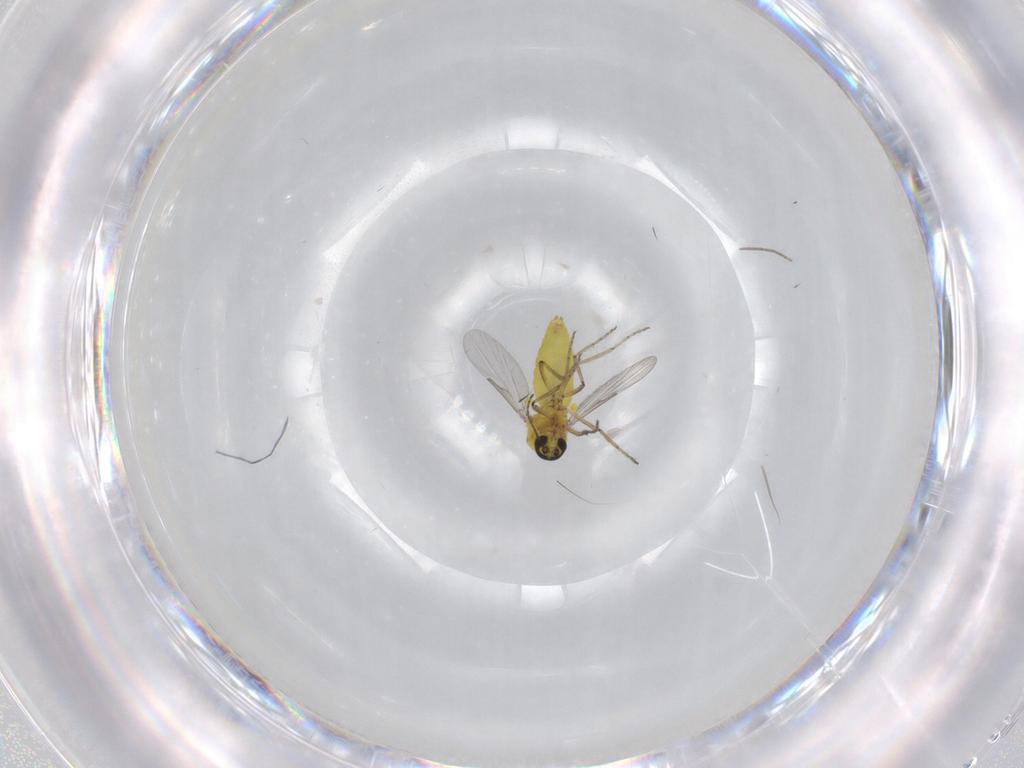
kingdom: Animalia
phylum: Arthropoda
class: Insecta
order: Diptera
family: Ceratopogonidae
